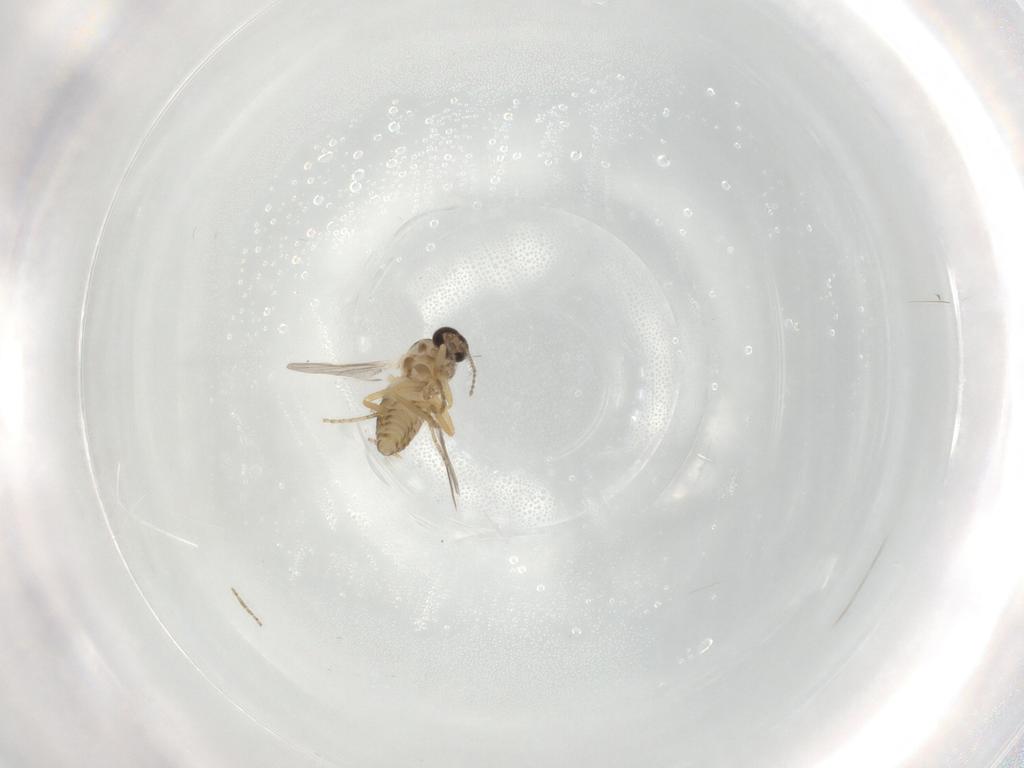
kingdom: Animalia
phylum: Arthropoda
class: Insecta
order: Diptera
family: Ceratopogonidae
